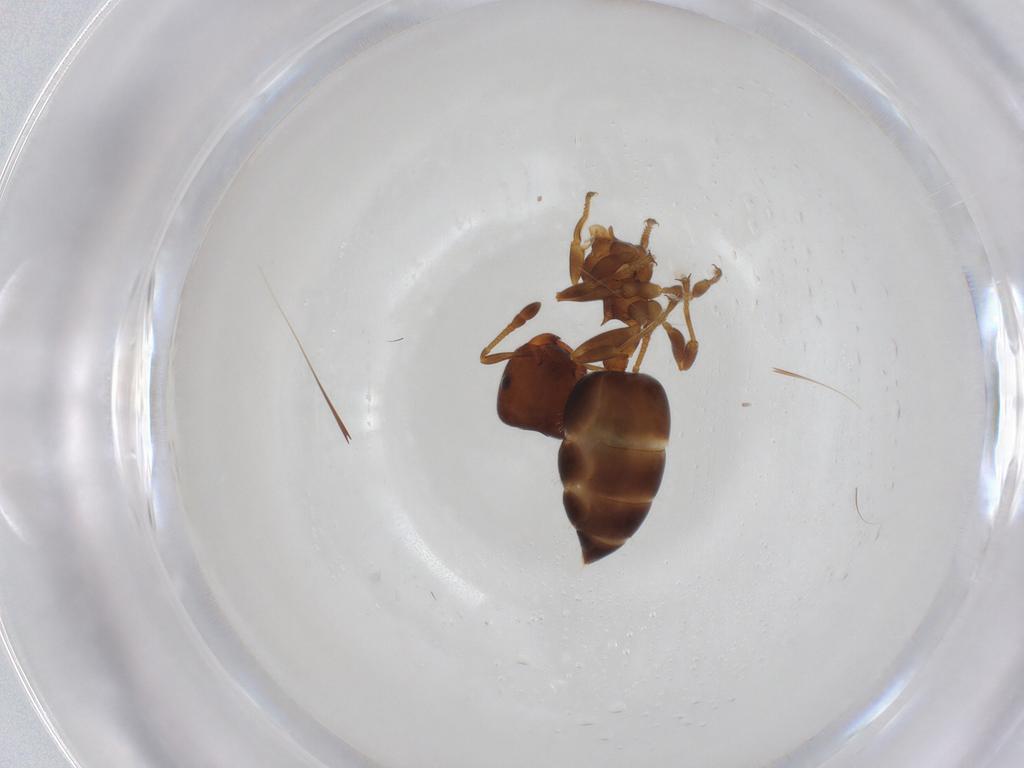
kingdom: Animalia
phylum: Arthropoda
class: Insecta
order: Hymenoptera
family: Formicidae
